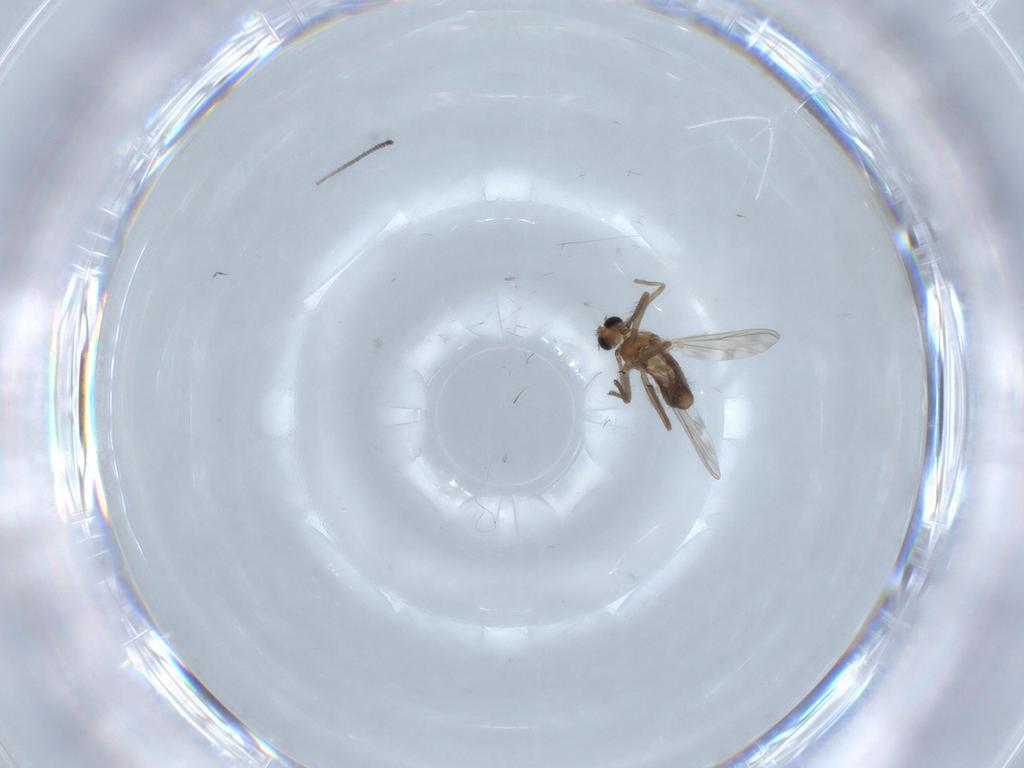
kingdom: Animalia
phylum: Arthropoda
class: Insecta
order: Diptera
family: Chironomidae
